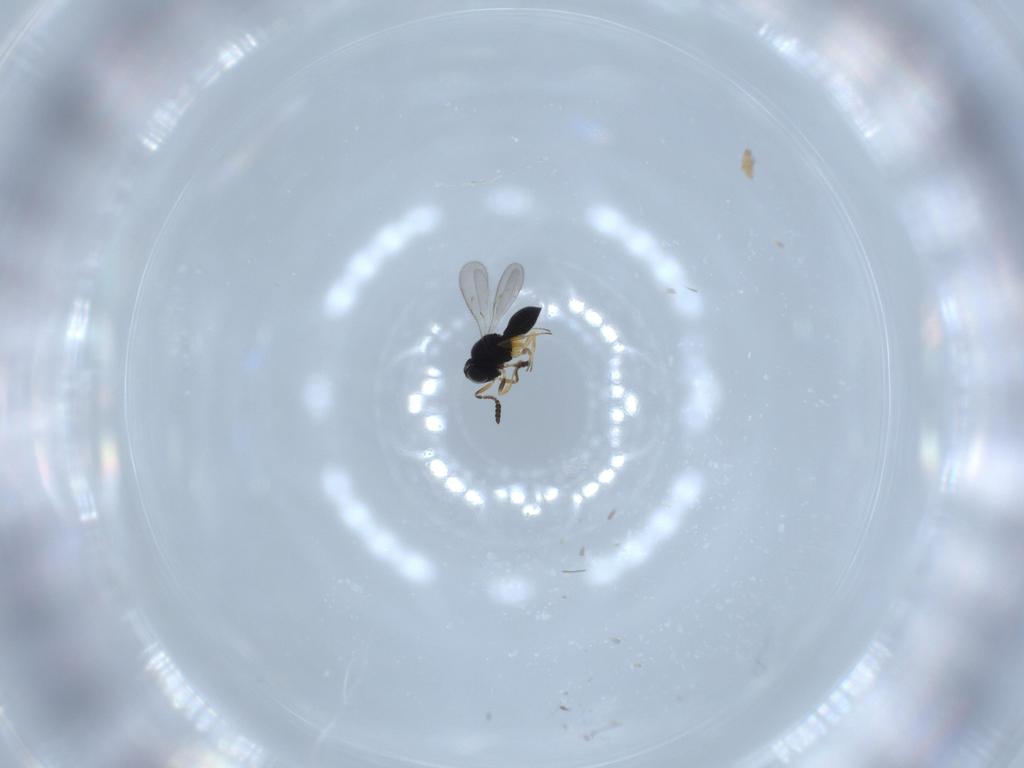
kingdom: Animalia
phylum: Arthropoda
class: Insecta
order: Hymenoptera
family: Scelionidae
